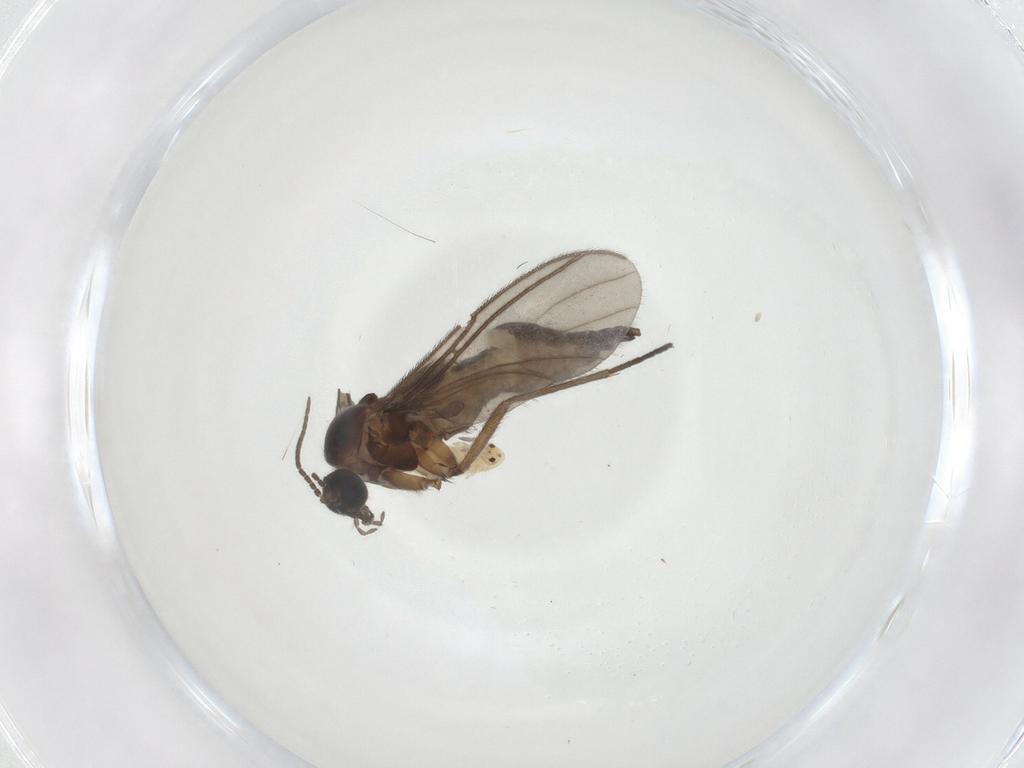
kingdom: Animalia
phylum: Arthropoda
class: Insecta
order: Diptera
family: Sciaridae
